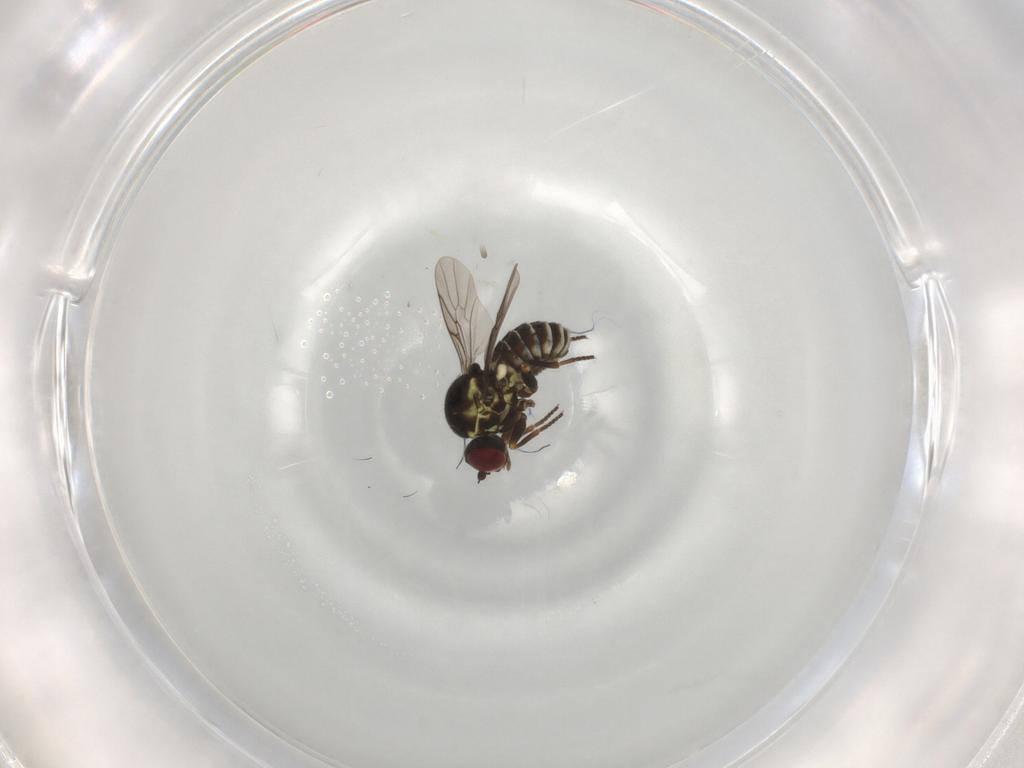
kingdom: Animalia
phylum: Arthropoda
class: Insecta
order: Diptera
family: Bombyliidae
